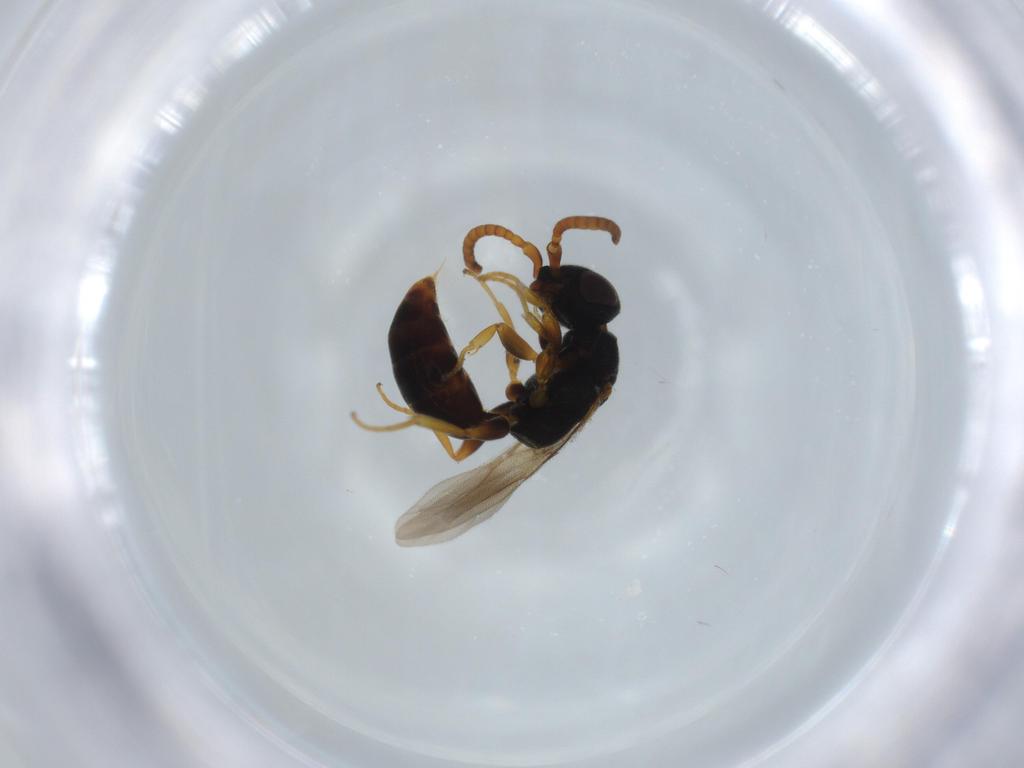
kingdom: Animalia
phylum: Arthropoda
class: Insecta
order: Hymenoptera
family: Bethylidae
